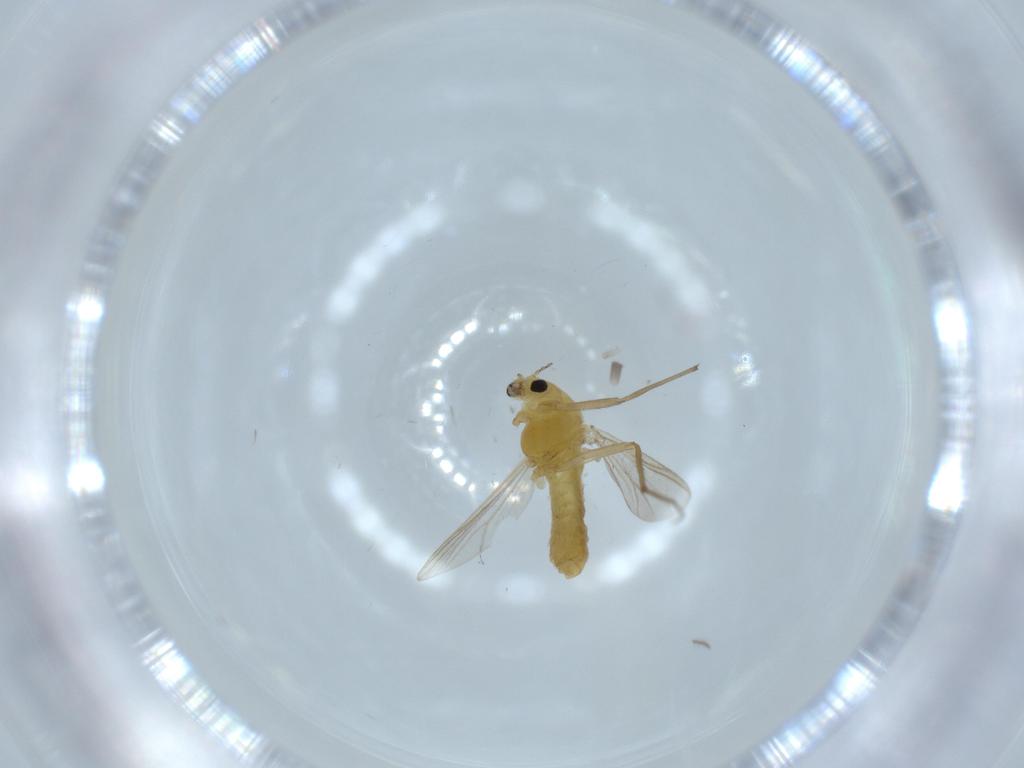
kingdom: Animalia
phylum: Arthropoda
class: Insecta
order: Diptera
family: Chironomidae
